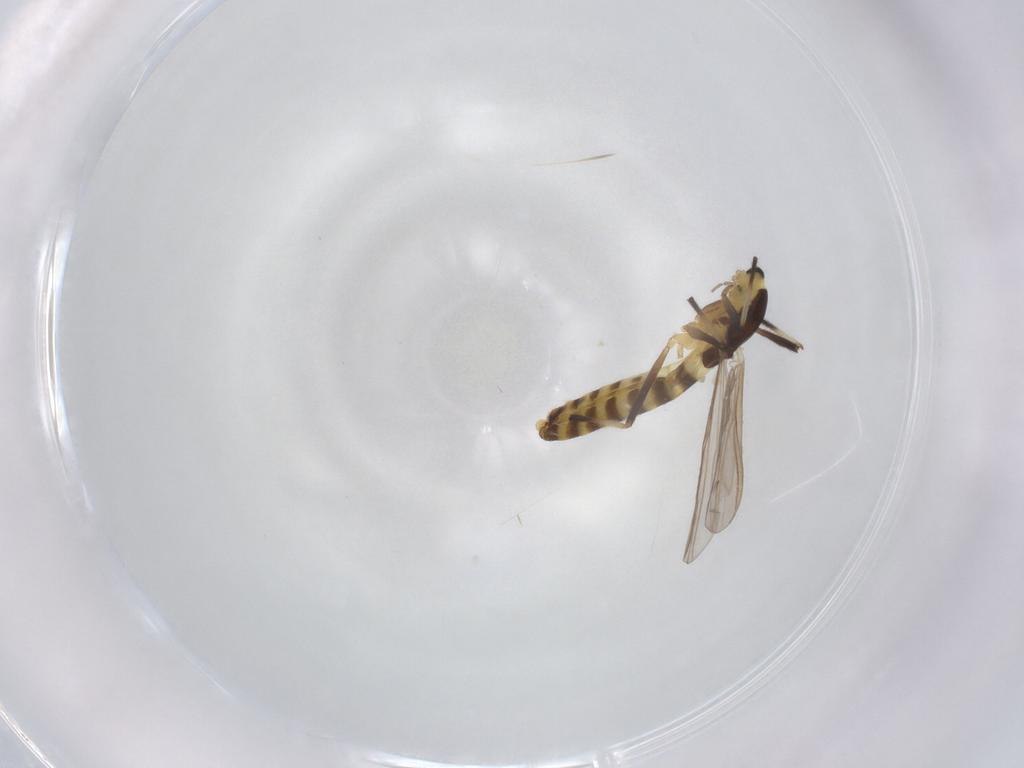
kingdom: Animalia
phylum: Arthropoda
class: Insecta
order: Diptera
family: Chironomidae
